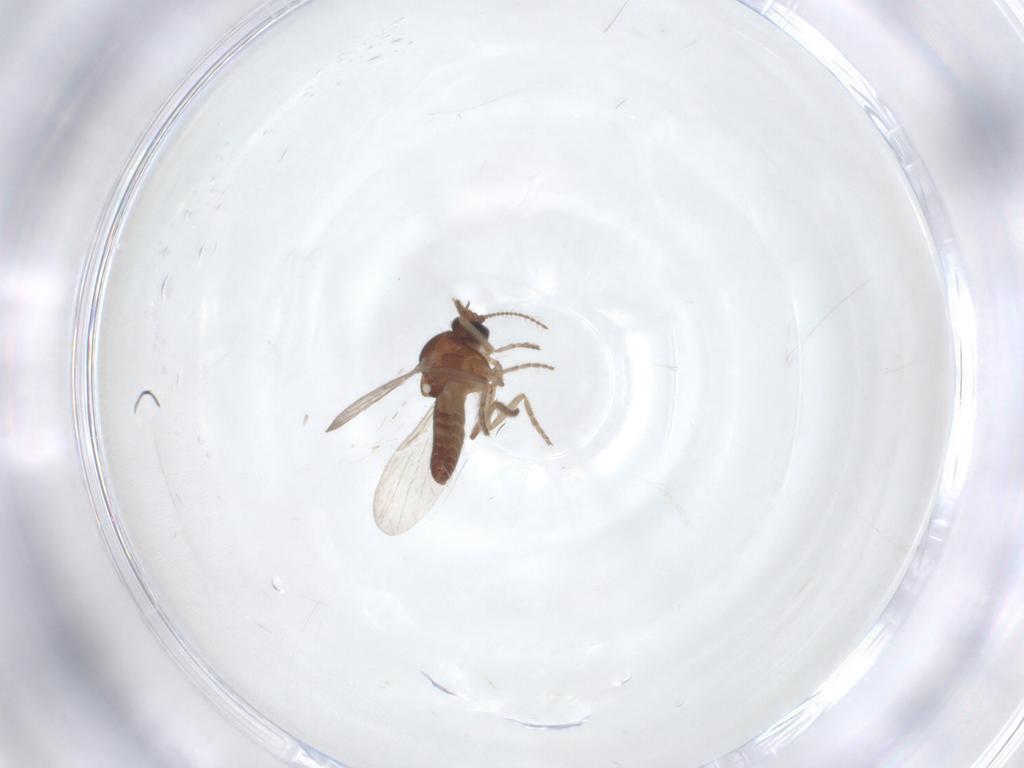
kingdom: Animalia
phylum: Arthropoda
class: Insecta
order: Diptera
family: Ceratopogonidae
